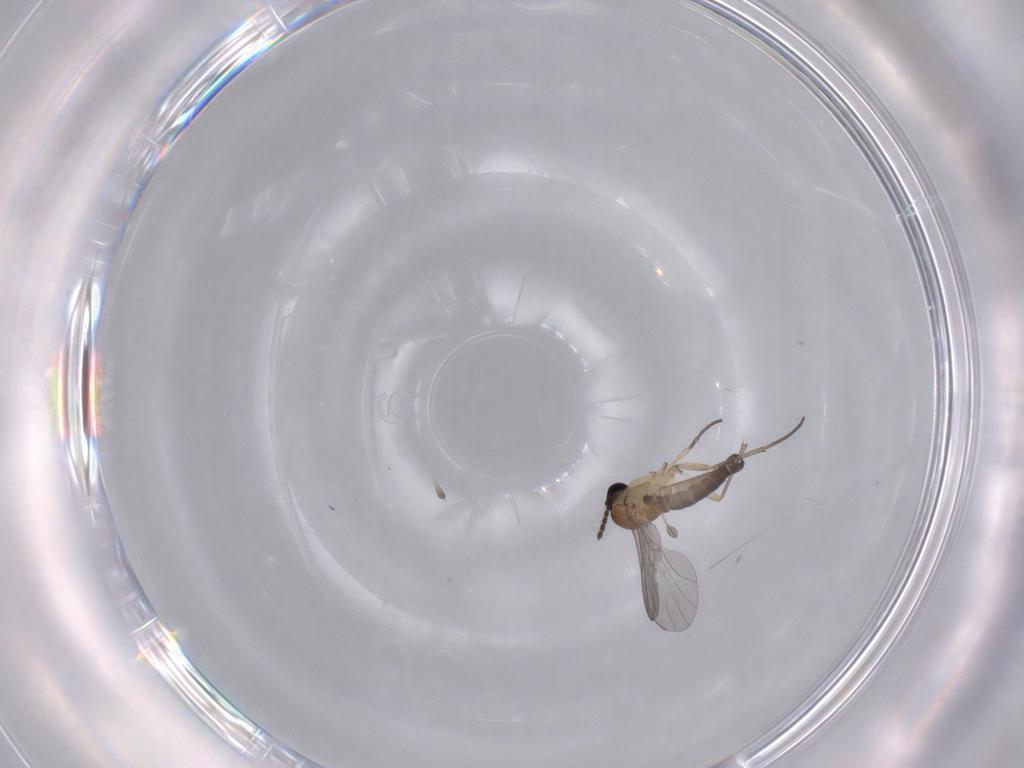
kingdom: Animalia
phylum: Arthropoda
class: Insecta
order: Diptera
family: Sciaridae
